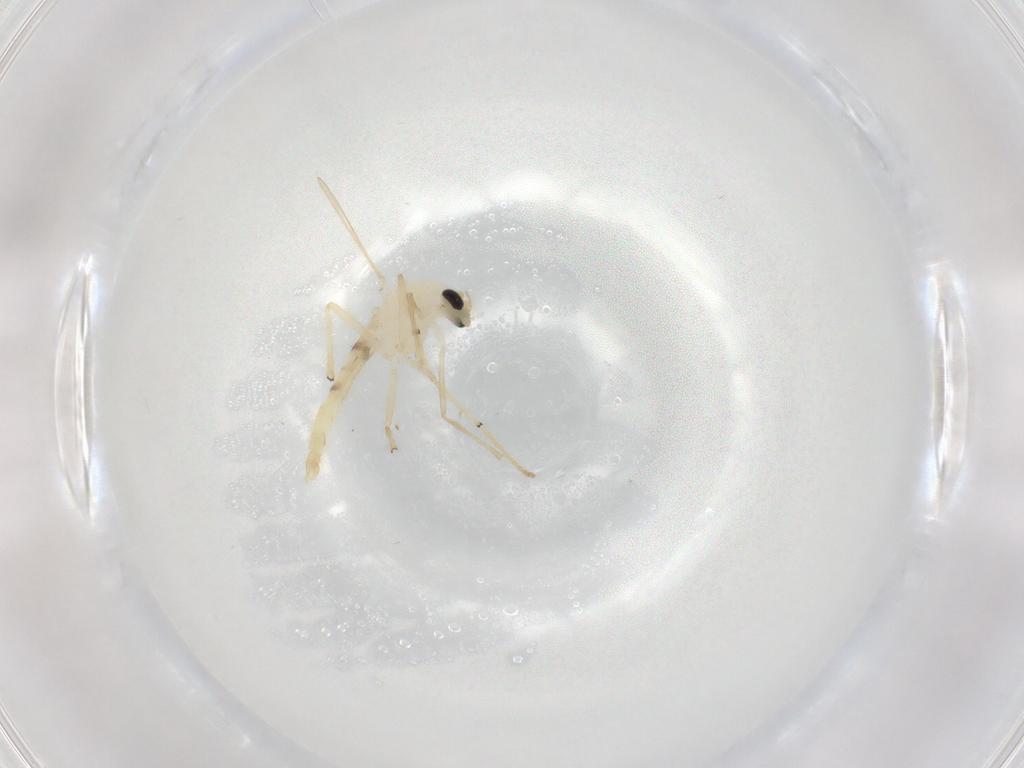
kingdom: Animalia
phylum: Arthropoda
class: Insecta
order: Diptera
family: Chironomidae
